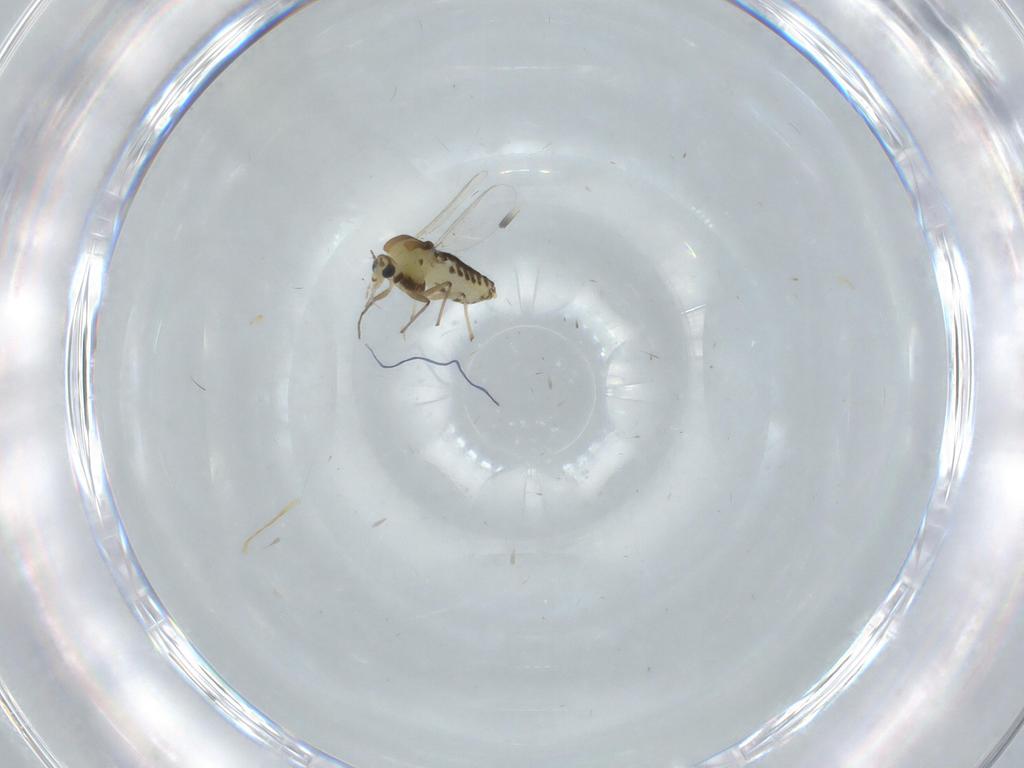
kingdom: Animalia
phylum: Arthropoda
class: Insecta
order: Diptera
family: Chironomidae
